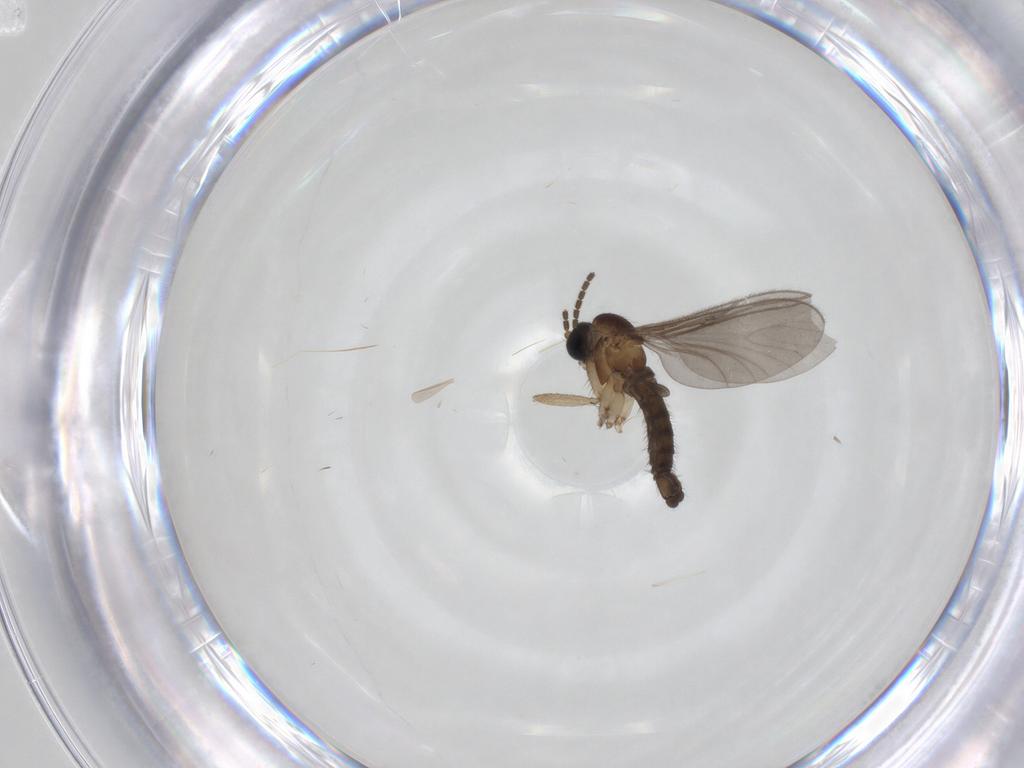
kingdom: Animalia
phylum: Arthropoda
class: Insecta
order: Diptera
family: Sciaridae
